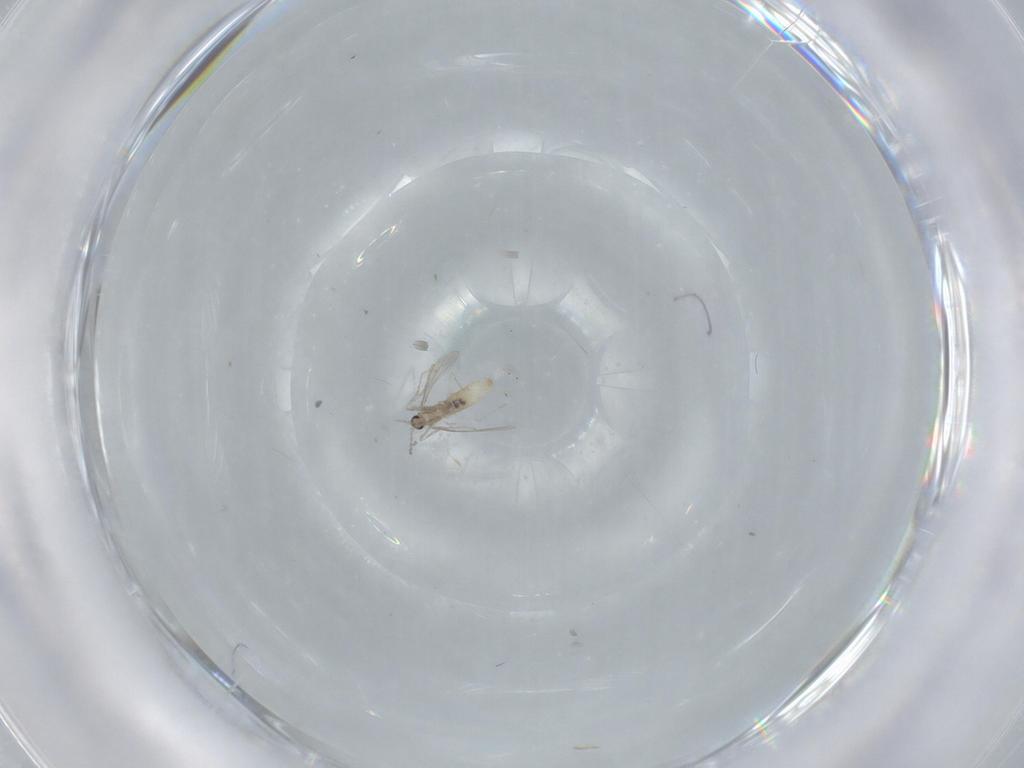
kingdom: Animalia
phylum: Arthropoda
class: Insecta
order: Diptera
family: Cecidomyiidae
